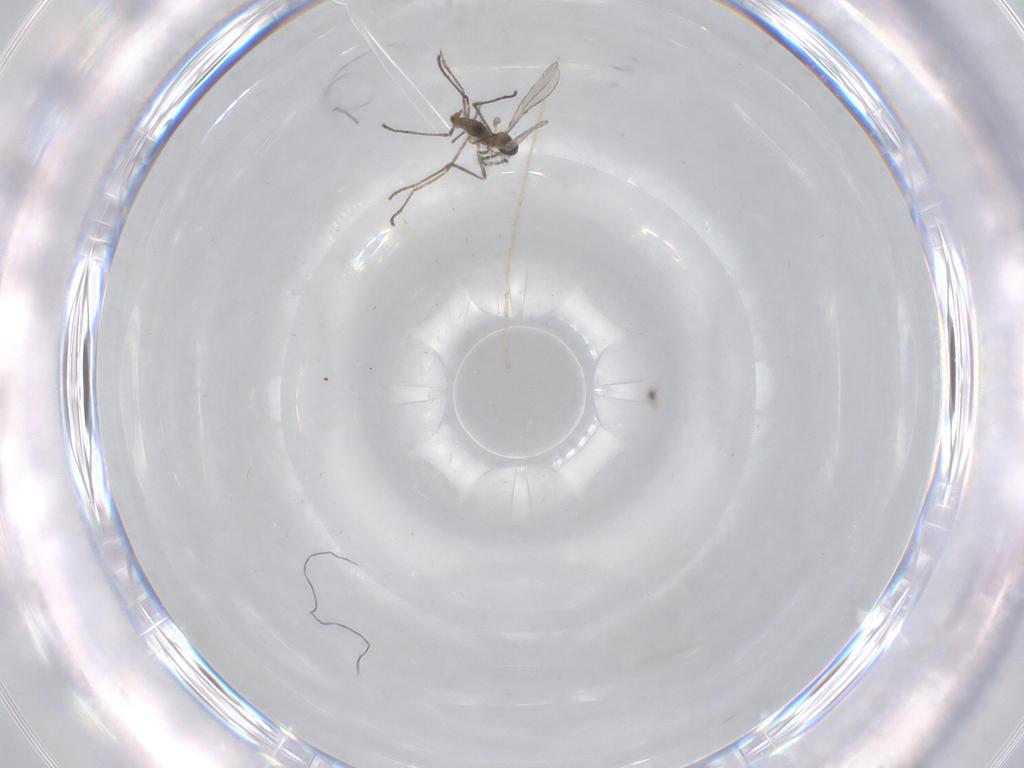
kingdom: Animalia
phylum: Arthropoda
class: Insecta
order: Diptera
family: Chironomidae
